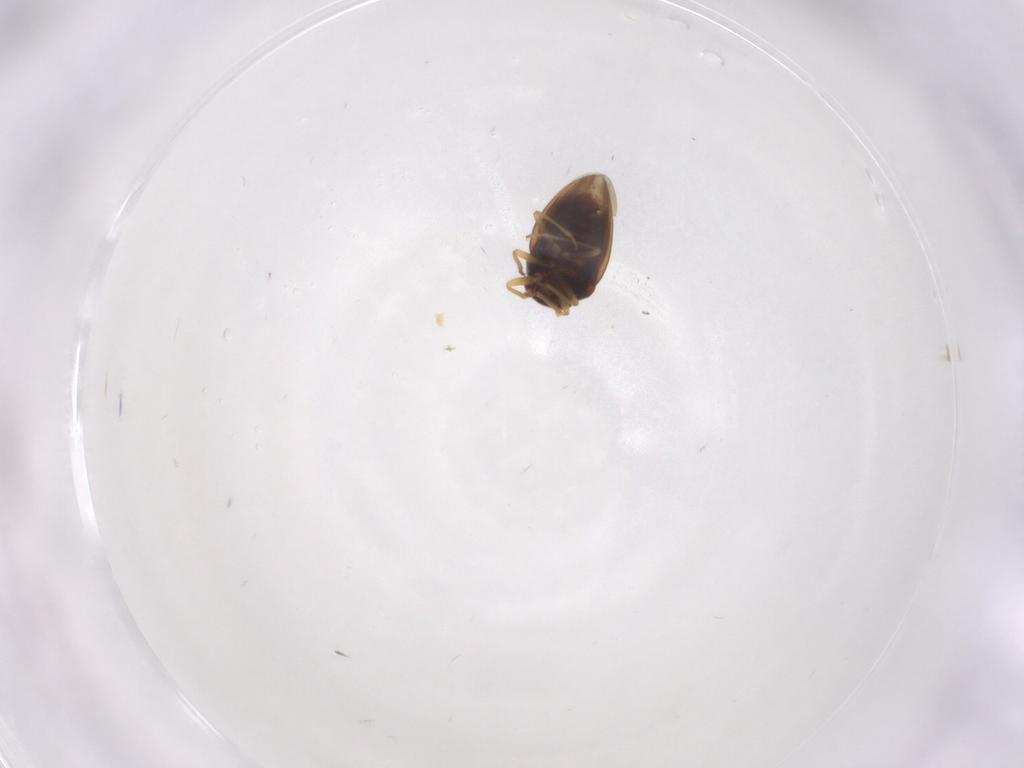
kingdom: Animalia
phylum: Arthropoda
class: Insecta
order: Hemiptera
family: Schizopteridae
